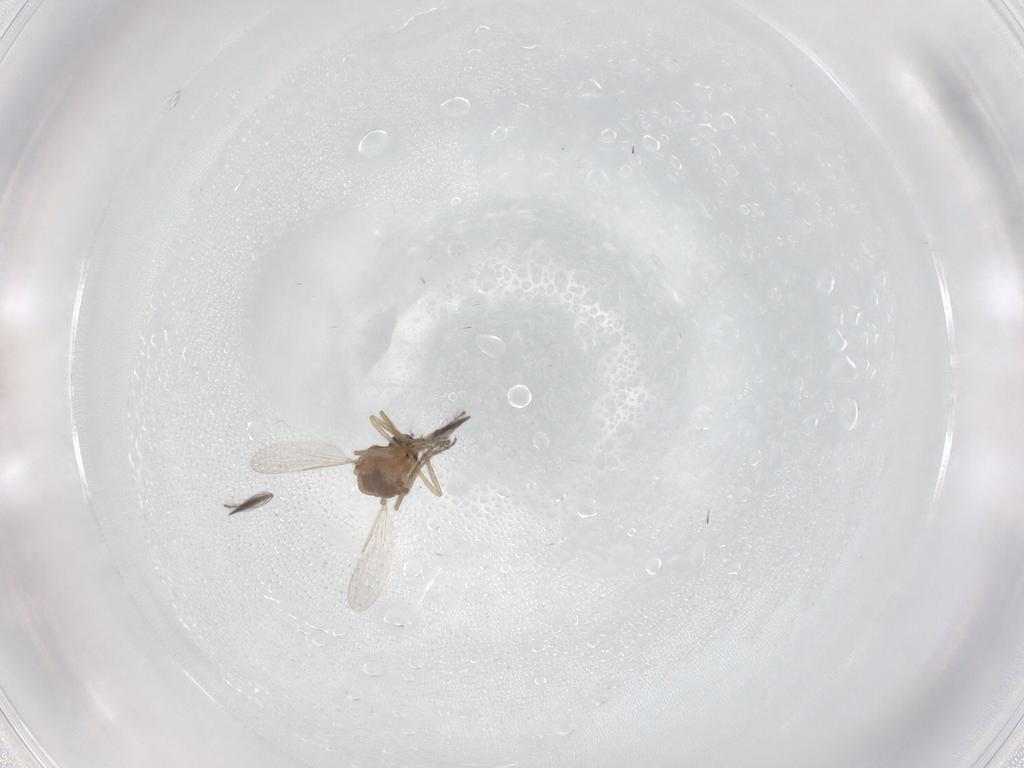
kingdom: Animalia
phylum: Arthropoda
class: Insecta
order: Diptera
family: Ceratopogonidae
